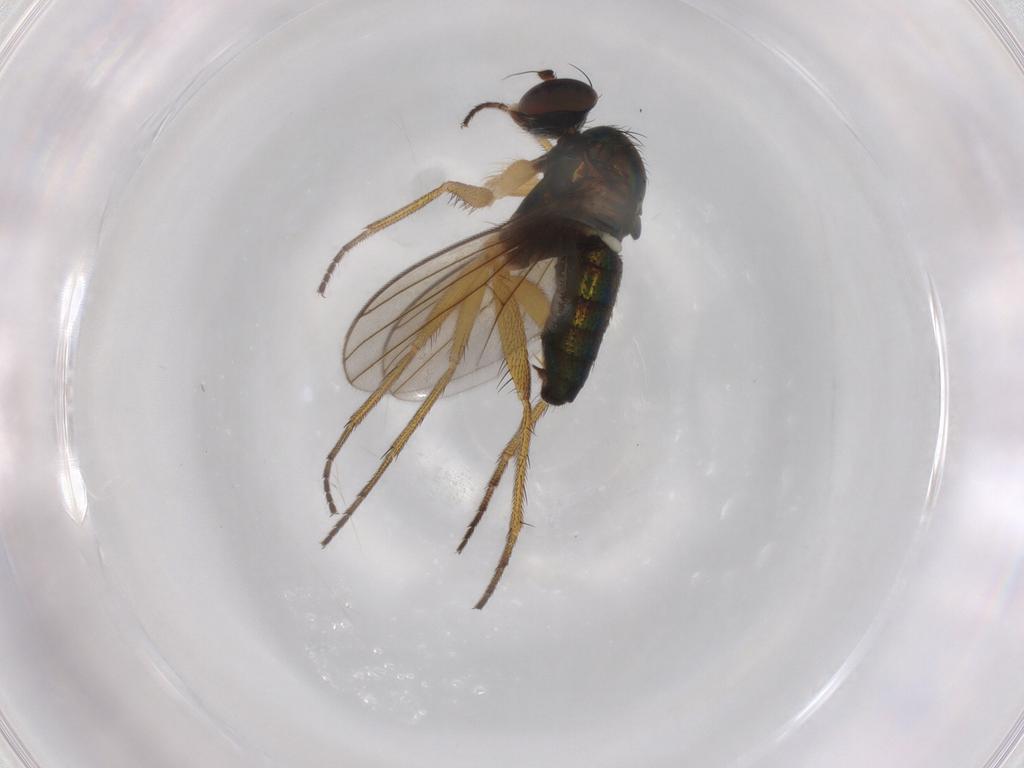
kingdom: Animalia
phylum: Arthropoda
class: Insecta
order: Diptera
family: Dolichopodidae
